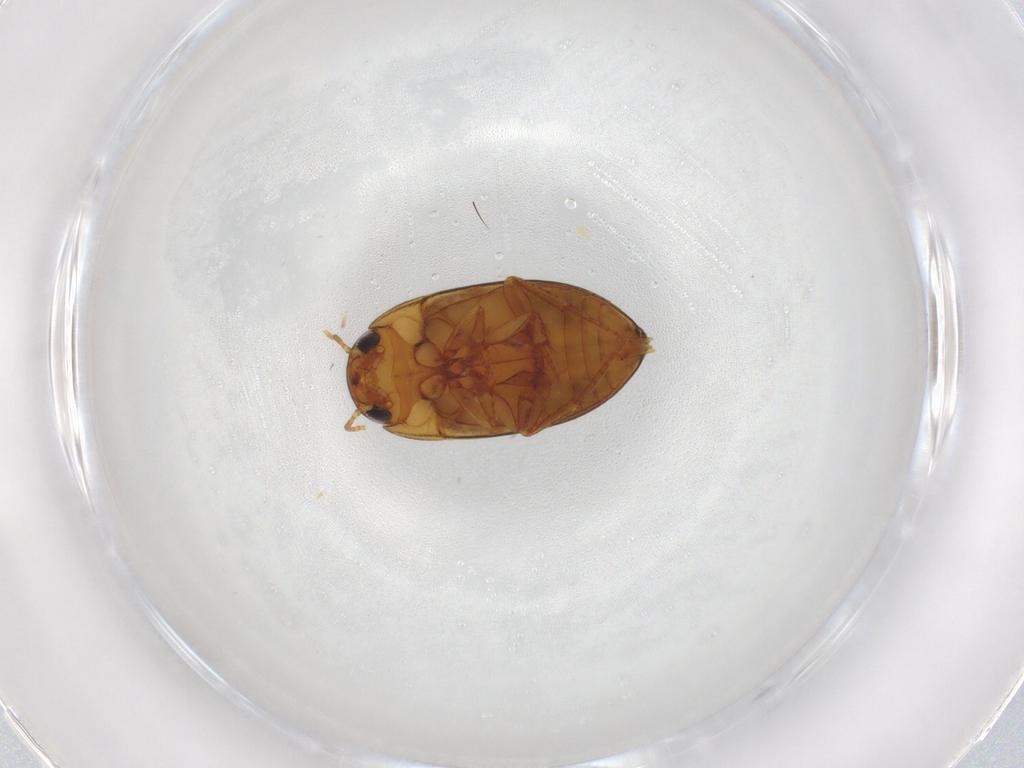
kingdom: Animalia
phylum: Arthropoda
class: Insecta
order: Coleoptera
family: Noteridae
